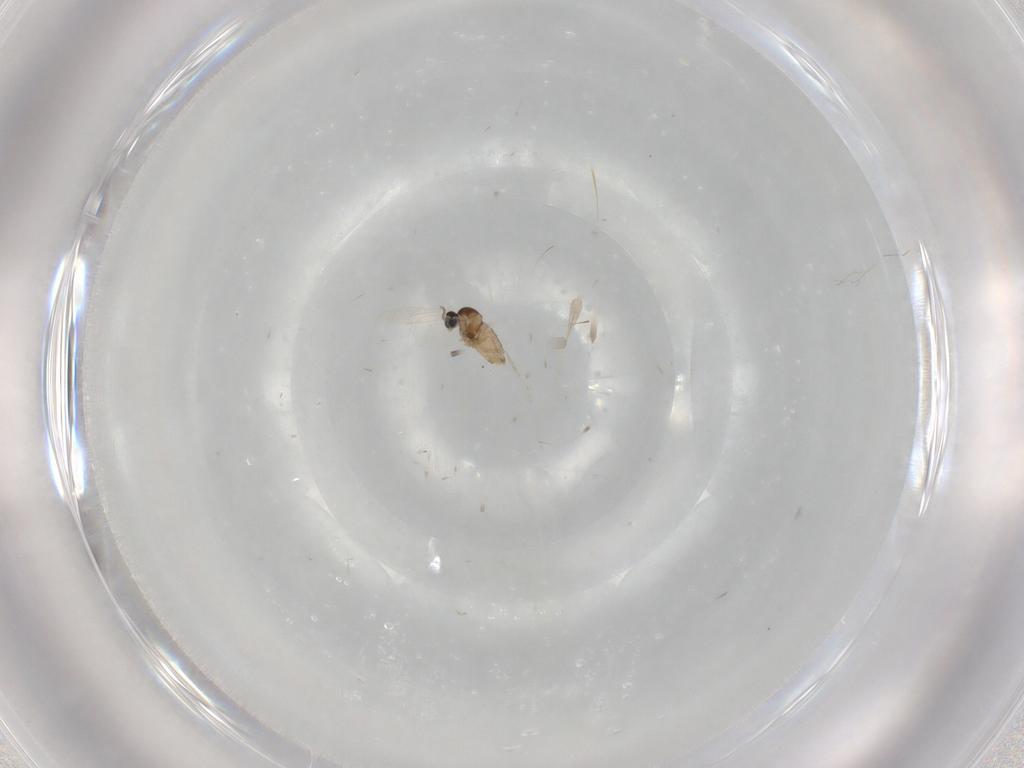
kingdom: Animalia
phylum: Arthropoda
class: Insecta
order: Diptera
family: Cecidomyiidae
